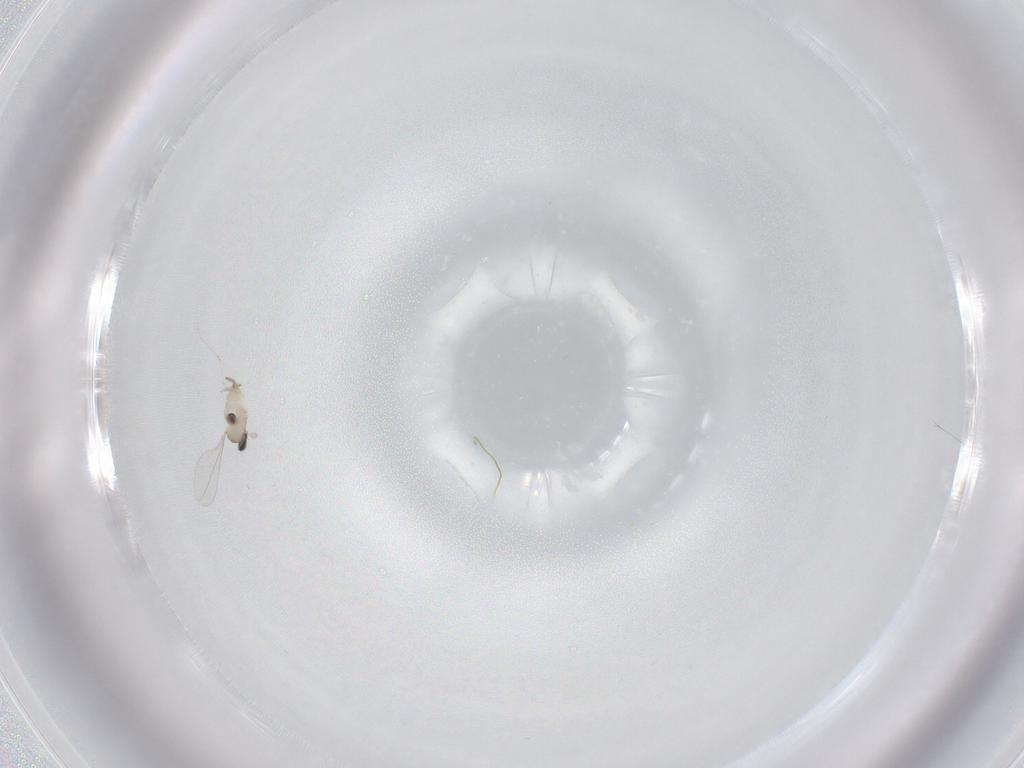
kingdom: Animalia
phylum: Arthropoda
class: Insecta
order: Diptera
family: Cecidomyiidae
